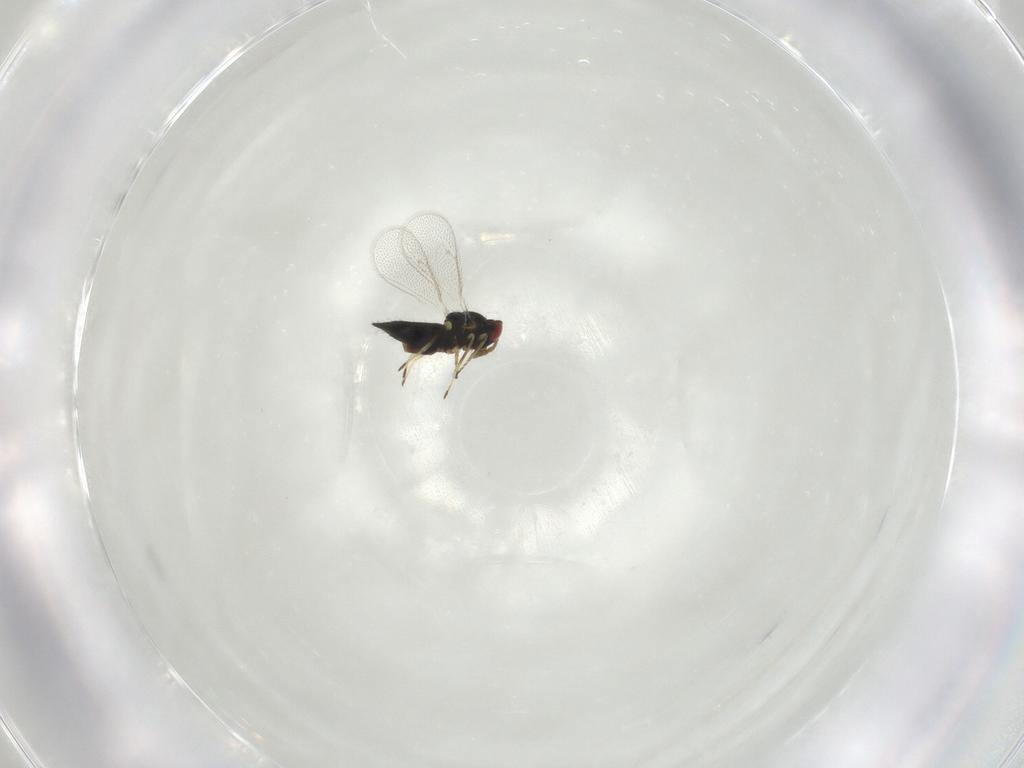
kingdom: Animalia
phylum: Arthropoda
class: Insecta
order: Hymenoptera
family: Eulophidae
